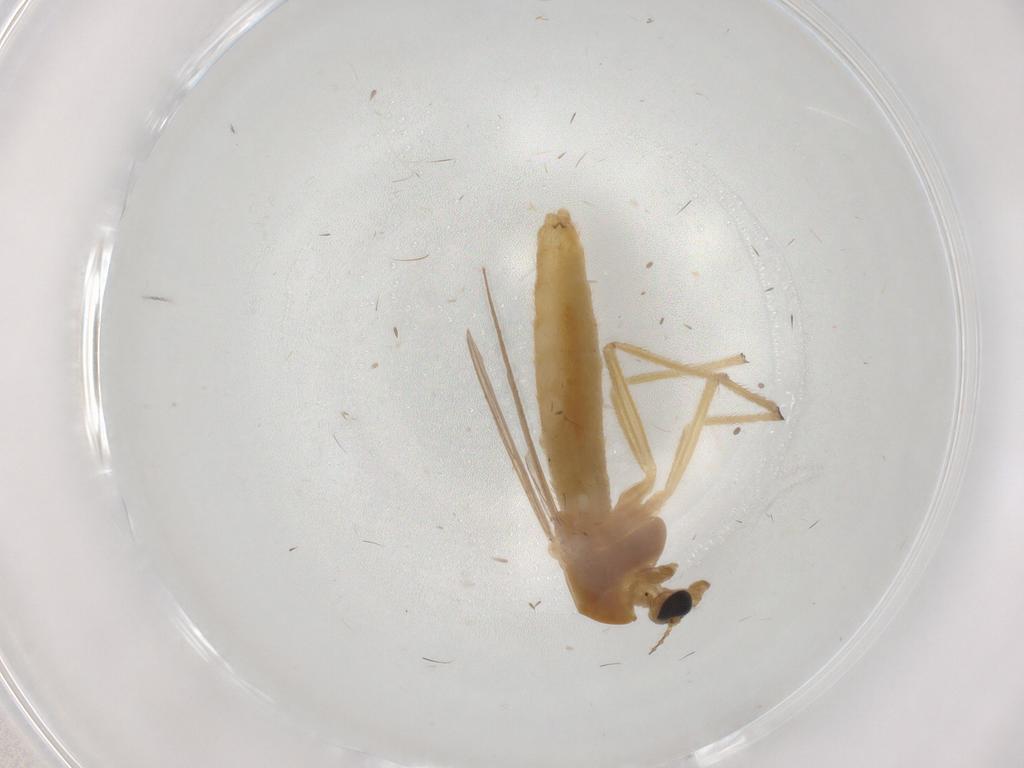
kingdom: Animalia
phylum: Arthropoda
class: Insecta
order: Diptera
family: Chironomidae
